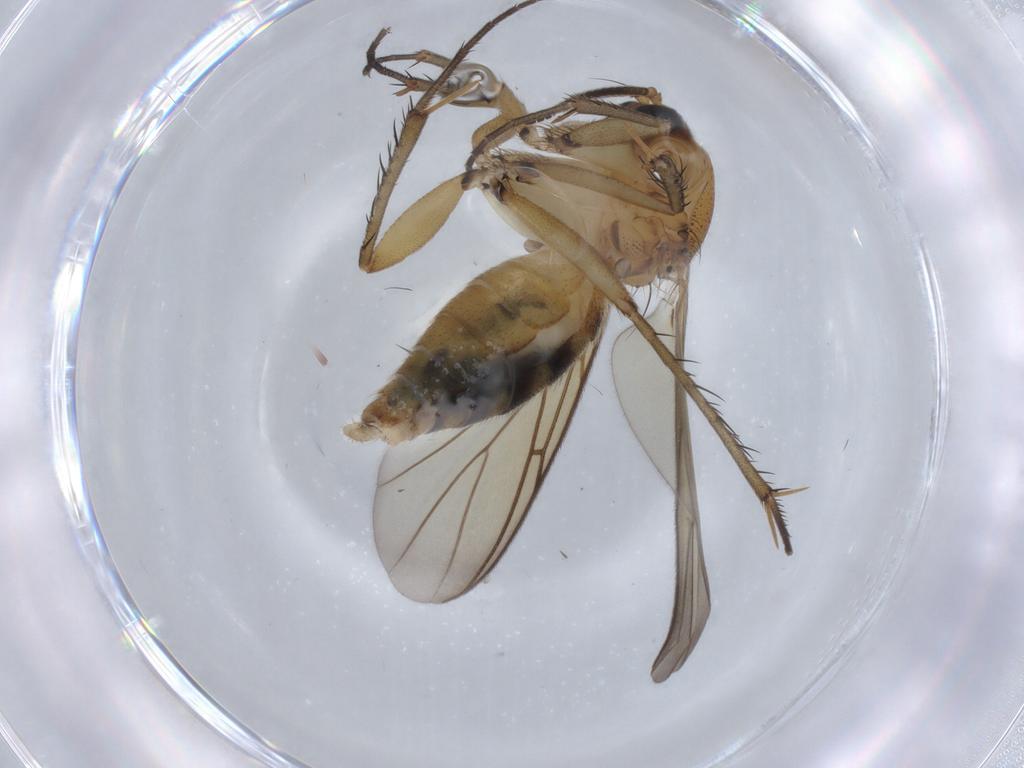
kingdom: Animalia
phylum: Arthropoda
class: Insecta
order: Diptera
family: Mycetophilidae
